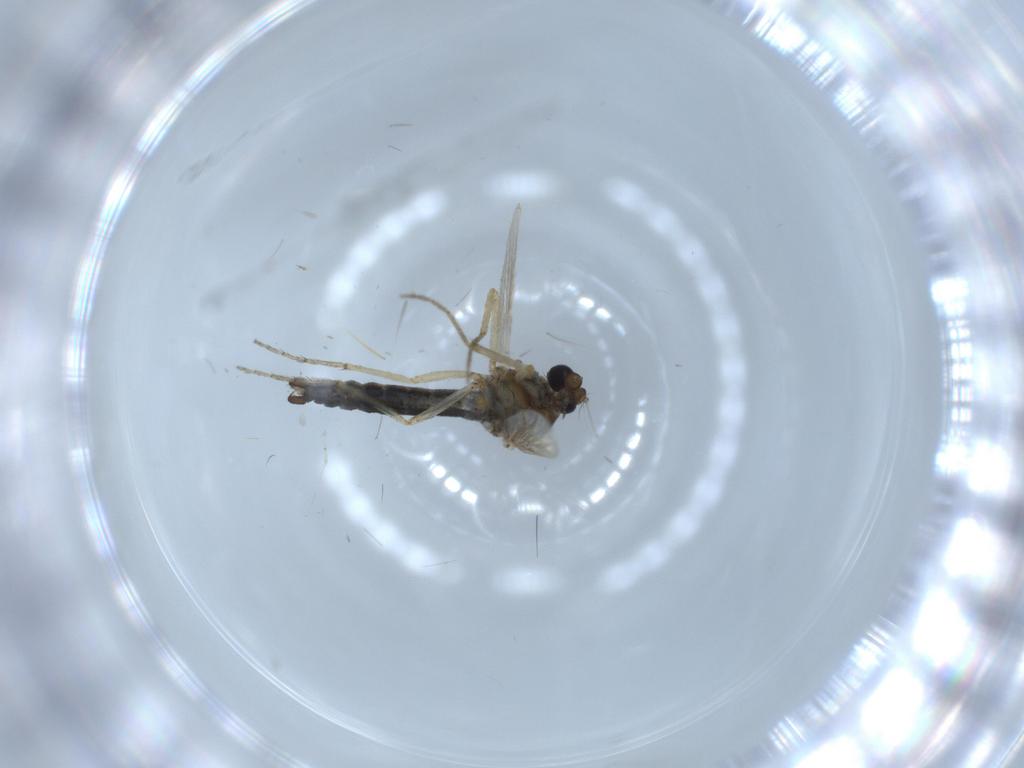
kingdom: Animalia
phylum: Arthropoda
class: Insecta
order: Diptera
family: Ceratopogonidae
